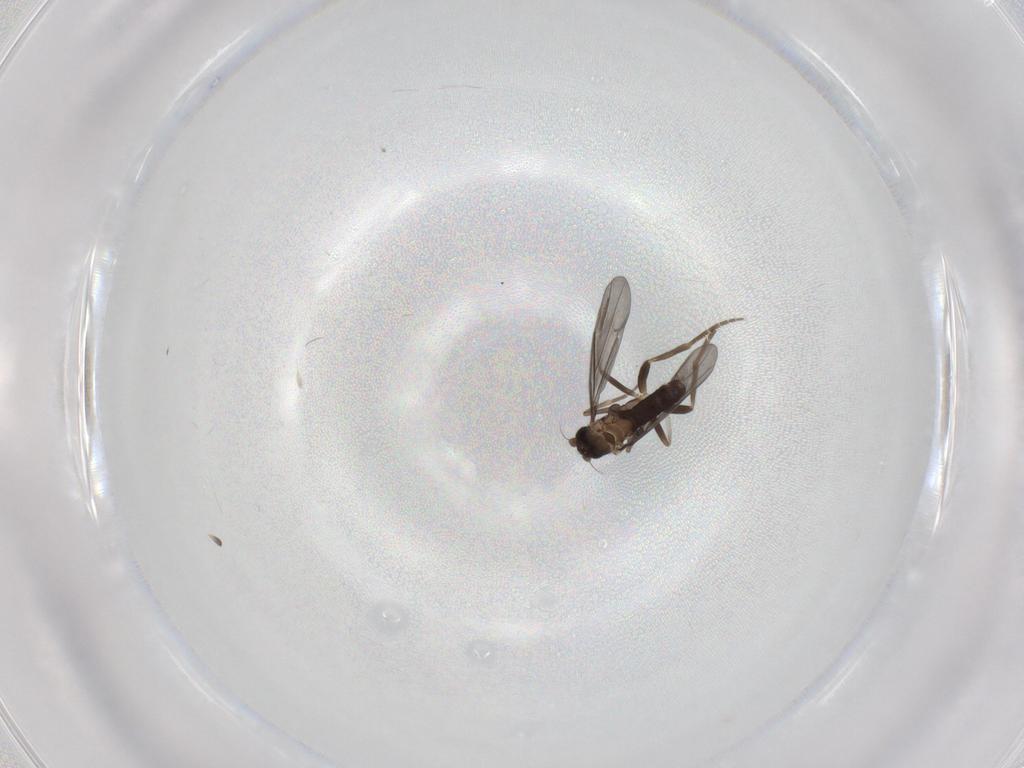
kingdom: Animalia
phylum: Arthropoda
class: Insecta
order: Diptera
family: Phoridae
